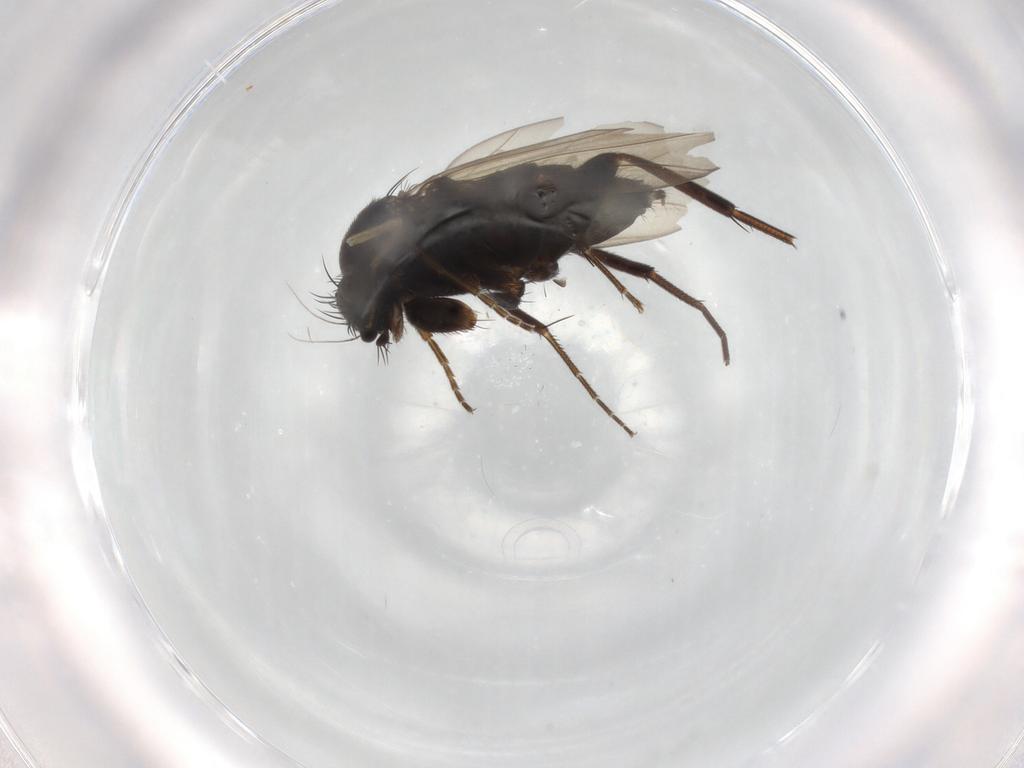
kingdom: Animalia
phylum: Arthropoda
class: Insecta
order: Diptera
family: Phoridae
